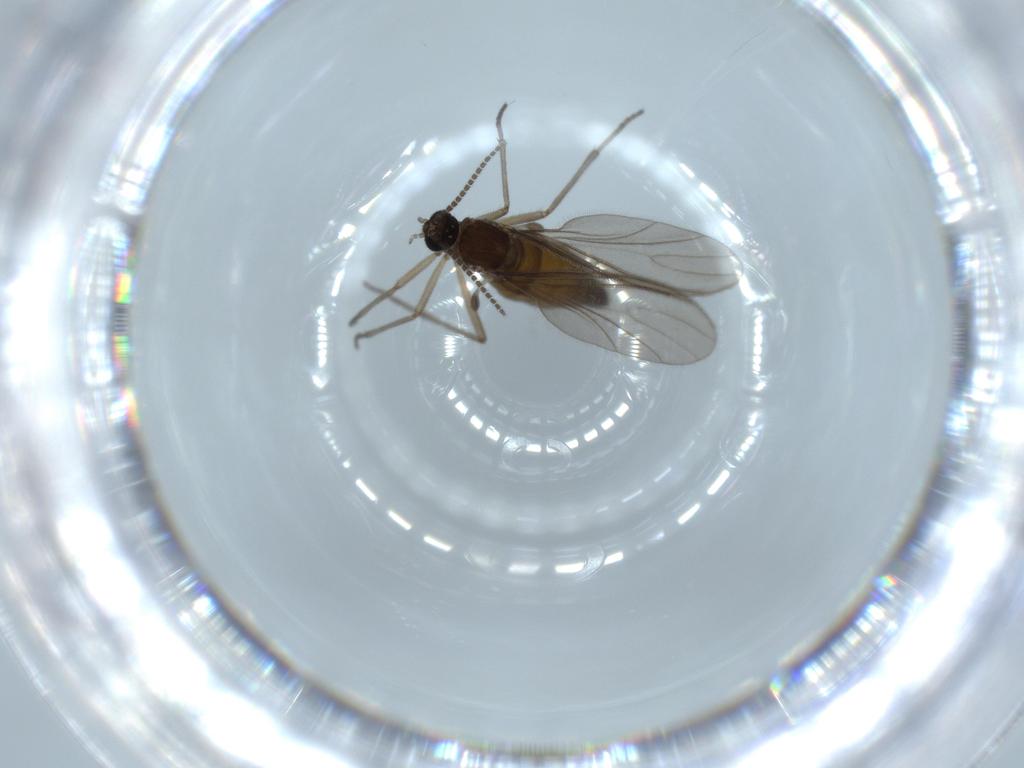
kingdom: Animalia
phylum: Arthropoda
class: Insecta
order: Diptera
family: Sciaridae
